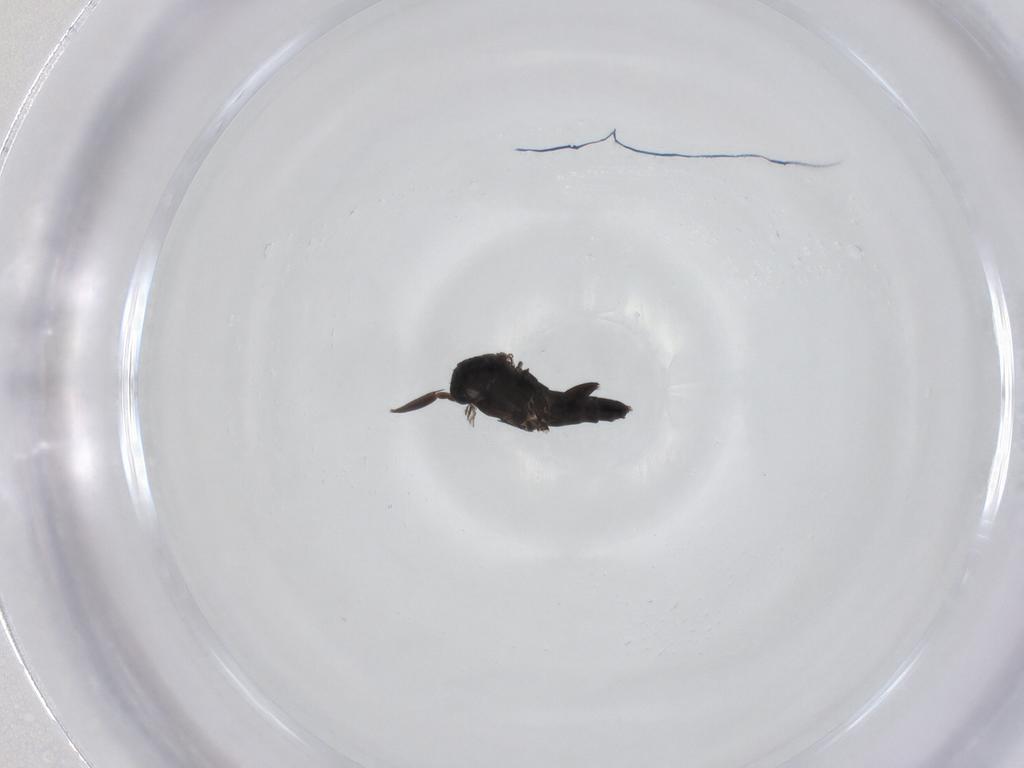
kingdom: Animalia
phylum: Arthropoda
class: Insecta
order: Diptera
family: Phoridae
